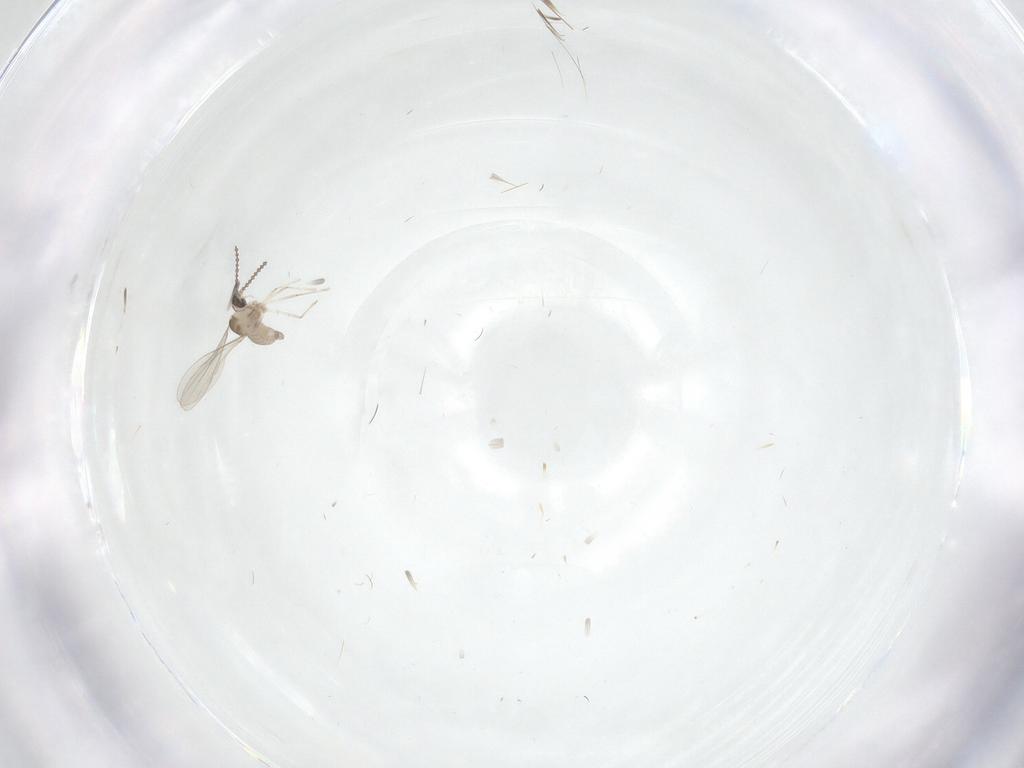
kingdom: Animalia
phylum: Arthropoda
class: Insecta
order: Diptera
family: Cecidomyiidae
